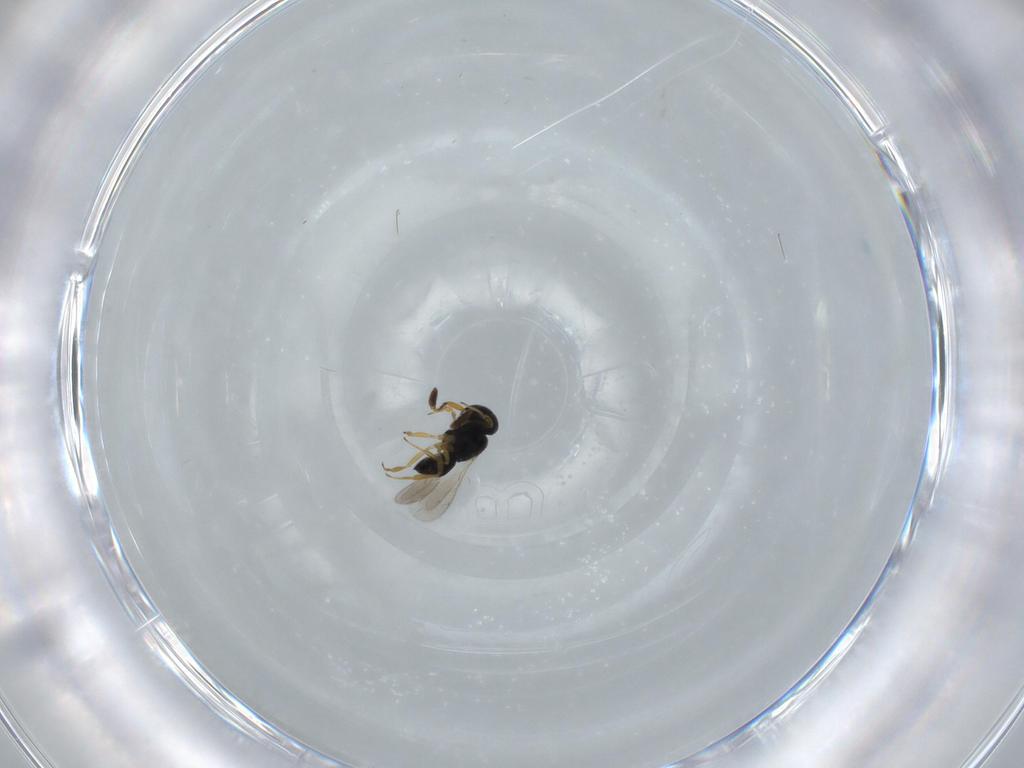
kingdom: Animalia
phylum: Arthropoda
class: Insecta
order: Hymenoptera
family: Scelionidae
